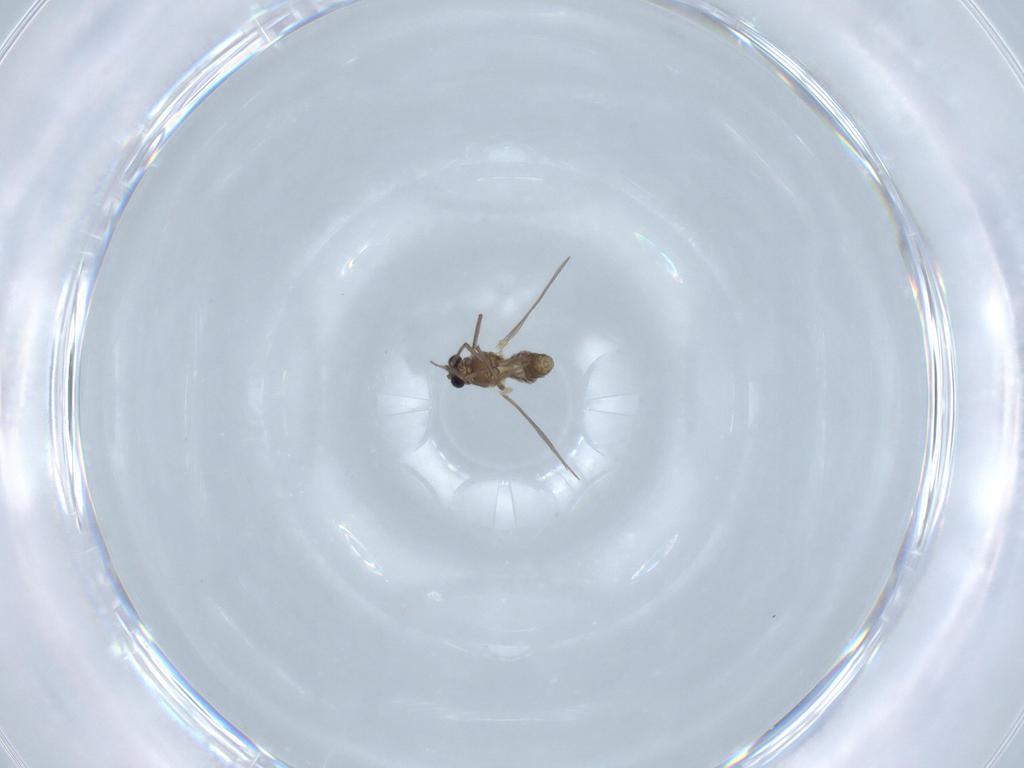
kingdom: Animalia
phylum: Arthropoda
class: Insecta
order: Diptera
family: Chironomidae
